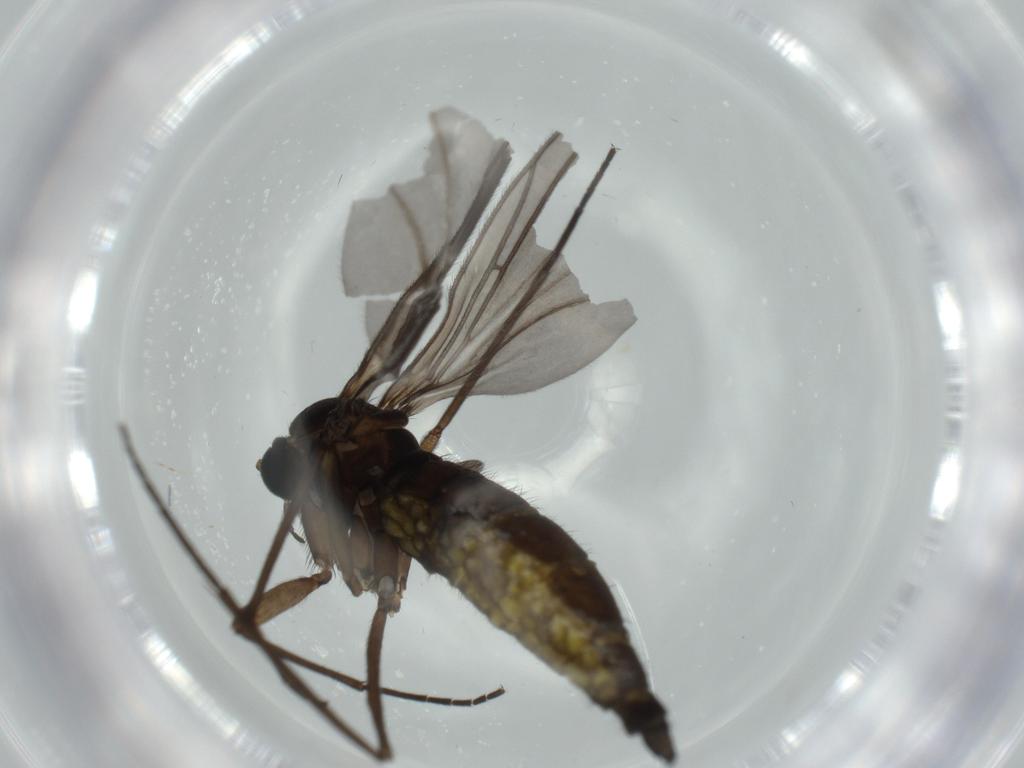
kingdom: Animalia
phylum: Arthropoda
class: Insecta
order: Diptera
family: Sciaridae
